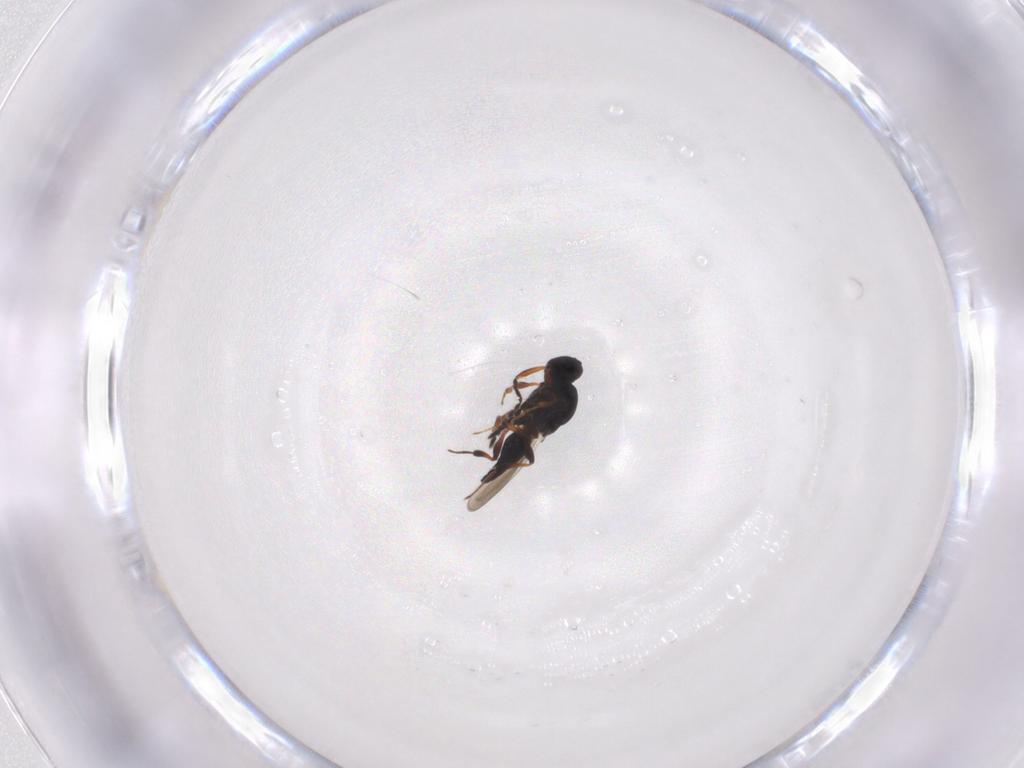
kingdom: Animalia
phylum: Arthropoda
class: Insecta
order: Hymenoptera
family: Platygastridae
